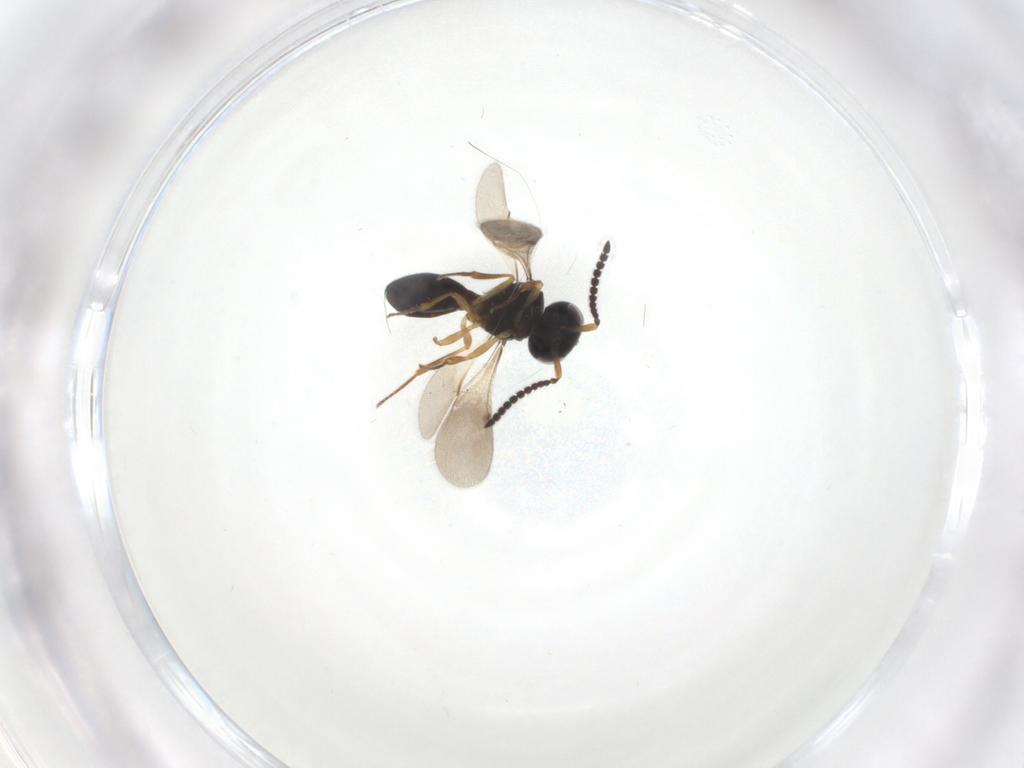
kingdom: Animalia
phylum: Arthropoda
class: Insecta
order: Hymenoptera
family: Scelionidae
